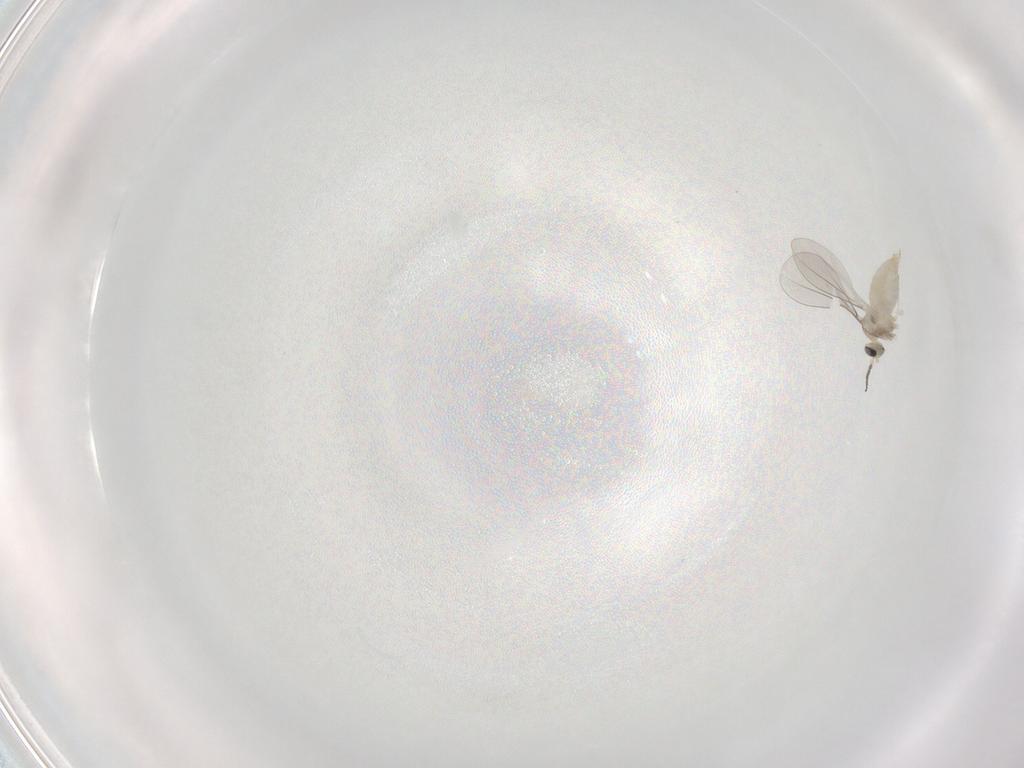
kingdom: Animalia
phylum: Arthropoda
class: Insecta
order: Diptera
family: Cecidomyiidae
